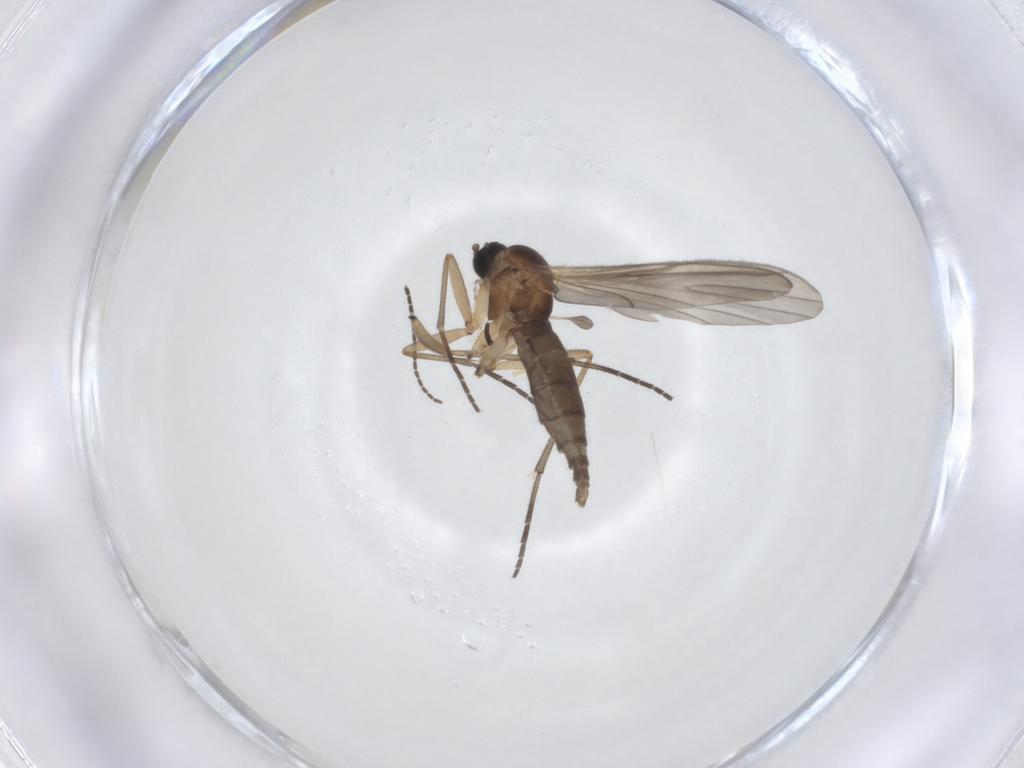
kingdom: Animalia
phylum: Arthropoda
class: Insecta
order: Diptera
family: Sciaridae
